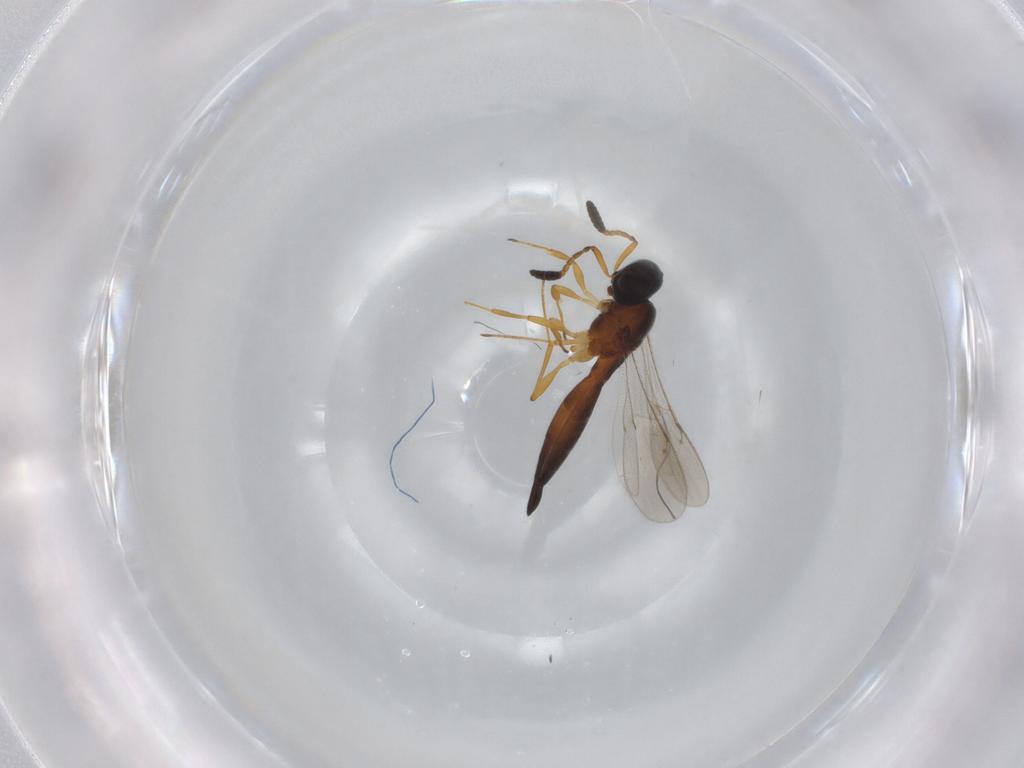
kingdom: Animalia
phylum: Arthropoda
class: Insecta
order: Hymenoptera
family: Scelionidae
